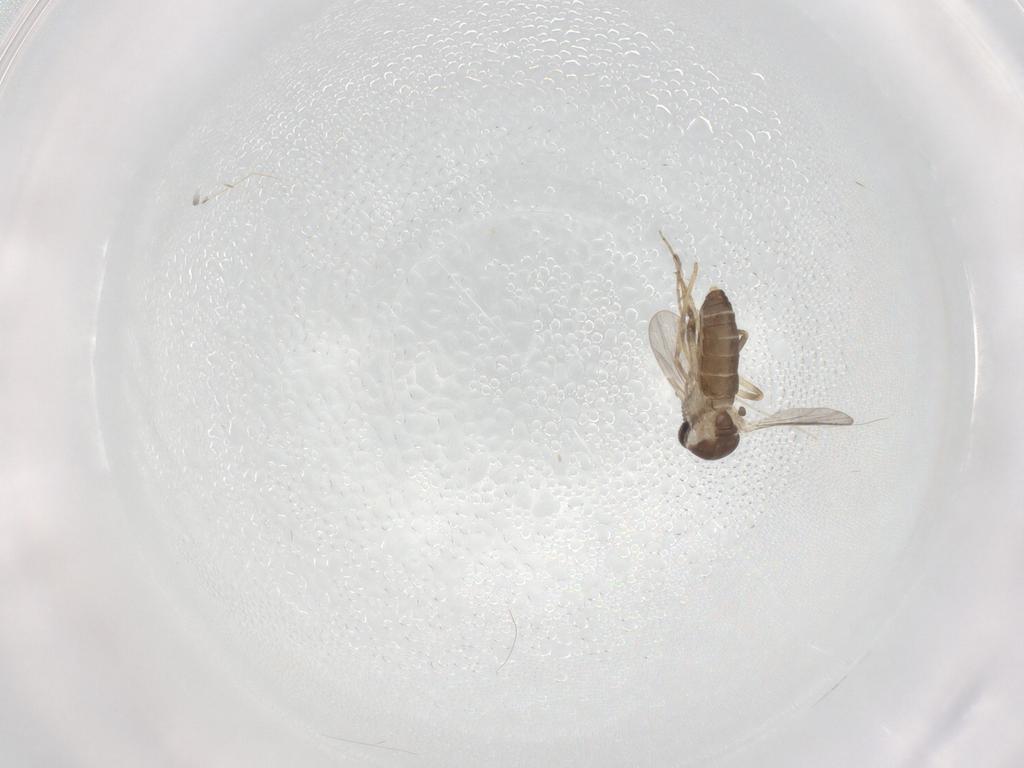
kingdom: Animalia
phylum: Arthropoda
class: Insecta
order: Diptera
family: Ceratopogonidae
